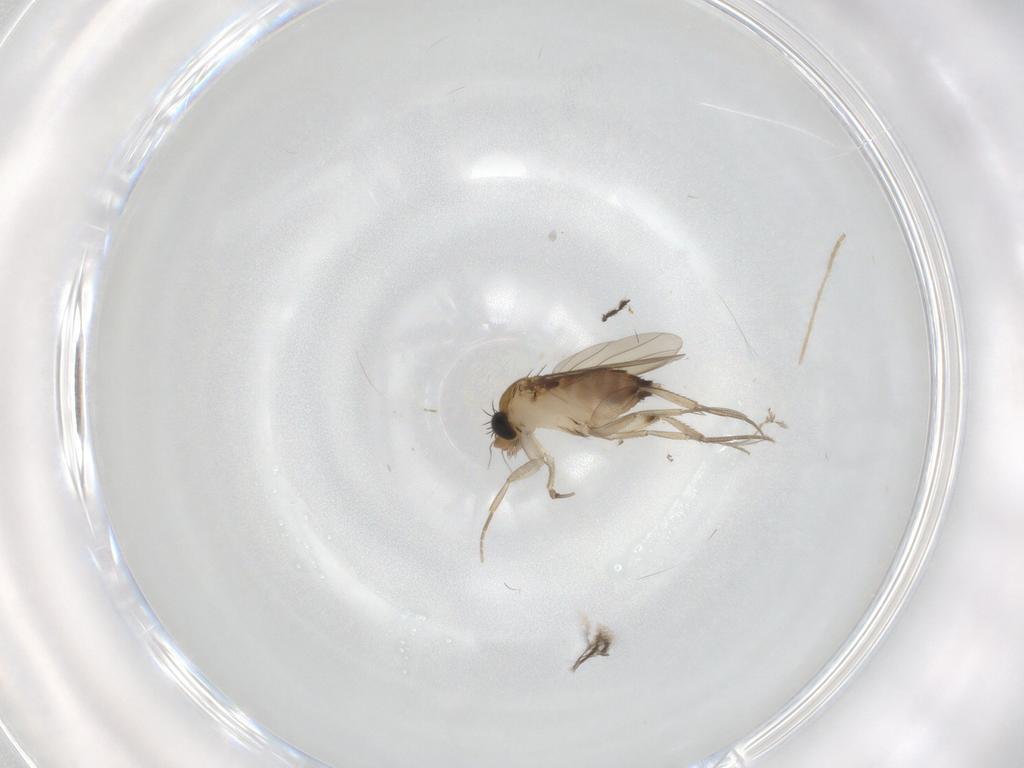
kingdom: Animalia
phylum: Arthropoda
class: Insecta
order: Diptera
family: Phoridae
